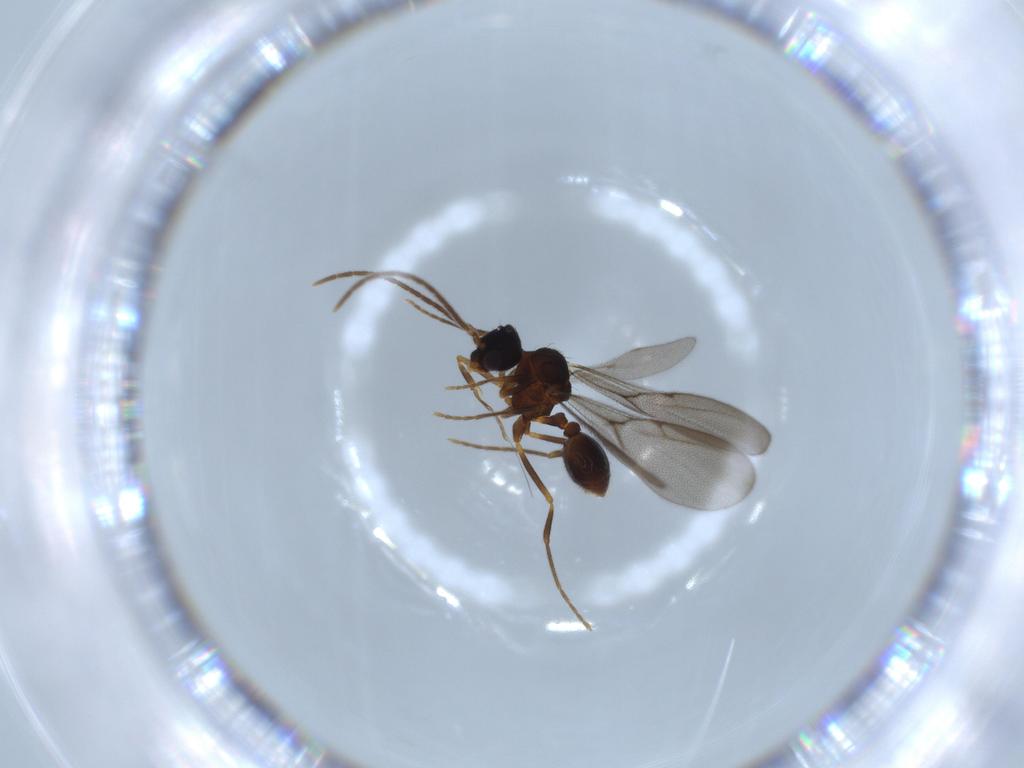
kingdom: Animalia
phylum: Arthropoda
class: Insecta
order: Hymenoptera
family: Formicidae
